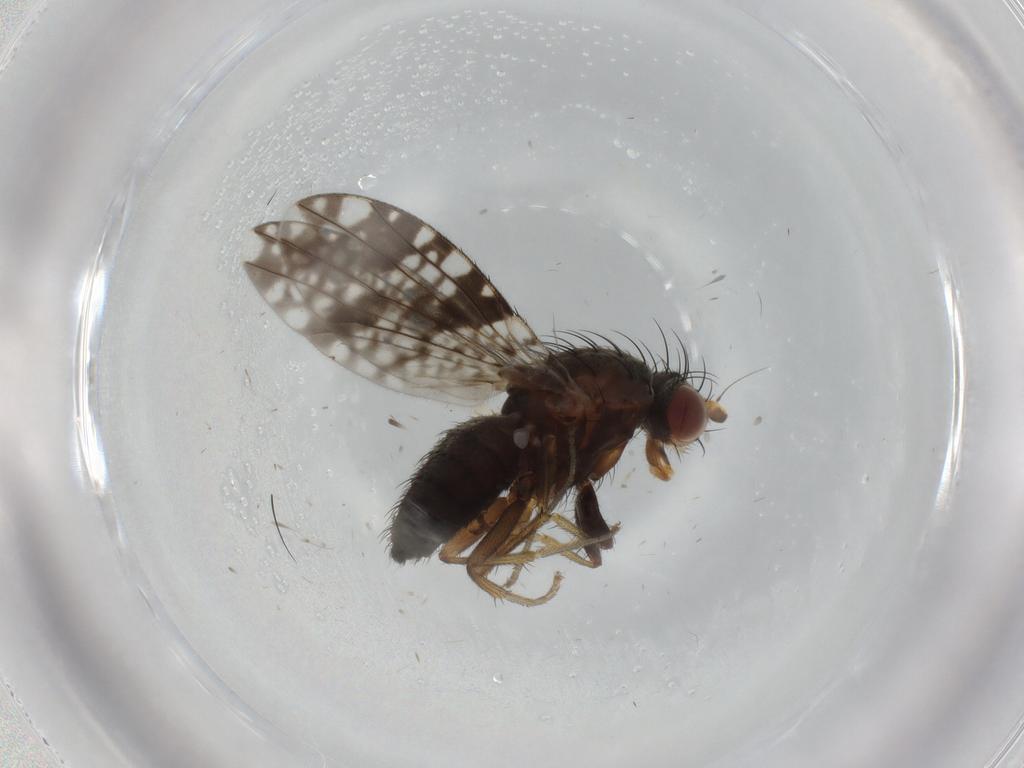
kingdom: Animalia
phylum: Arthropoda
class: Insecta
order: Diptera
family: Tephritidae
